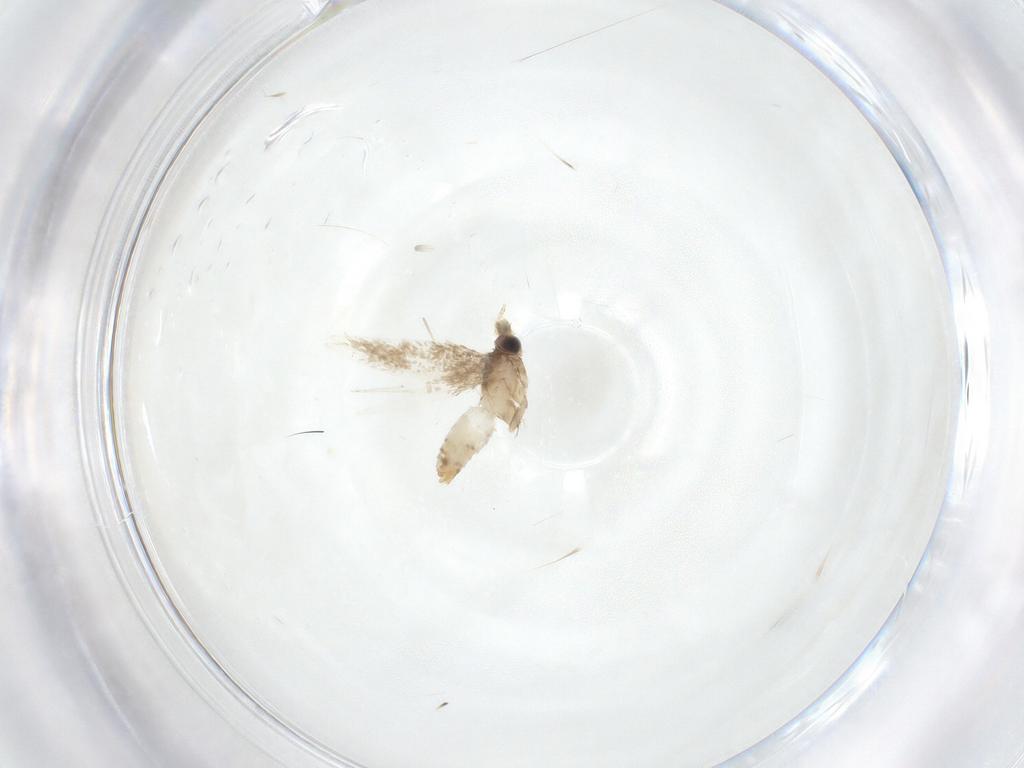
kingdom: Animalia
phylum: Arthropoda
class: Insecta
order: Lepidoptera
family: Nepticulidae
